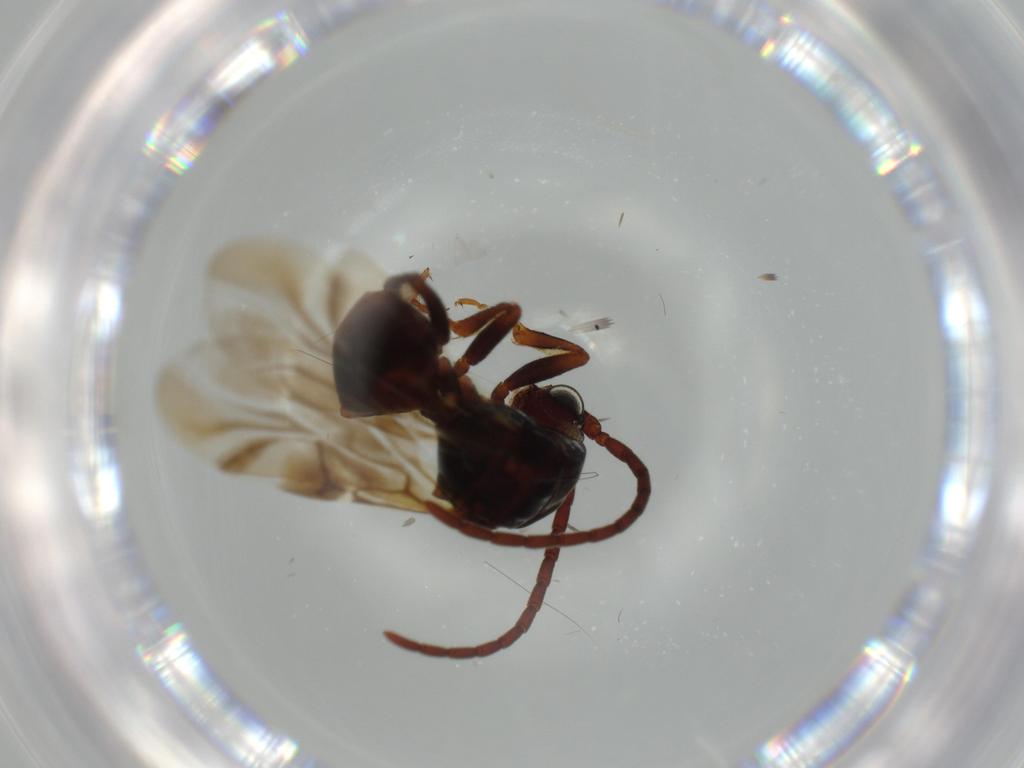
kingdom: Animalia
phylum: Arthropoda
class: Insecta
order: Hymenoptera
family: Chrysididae
